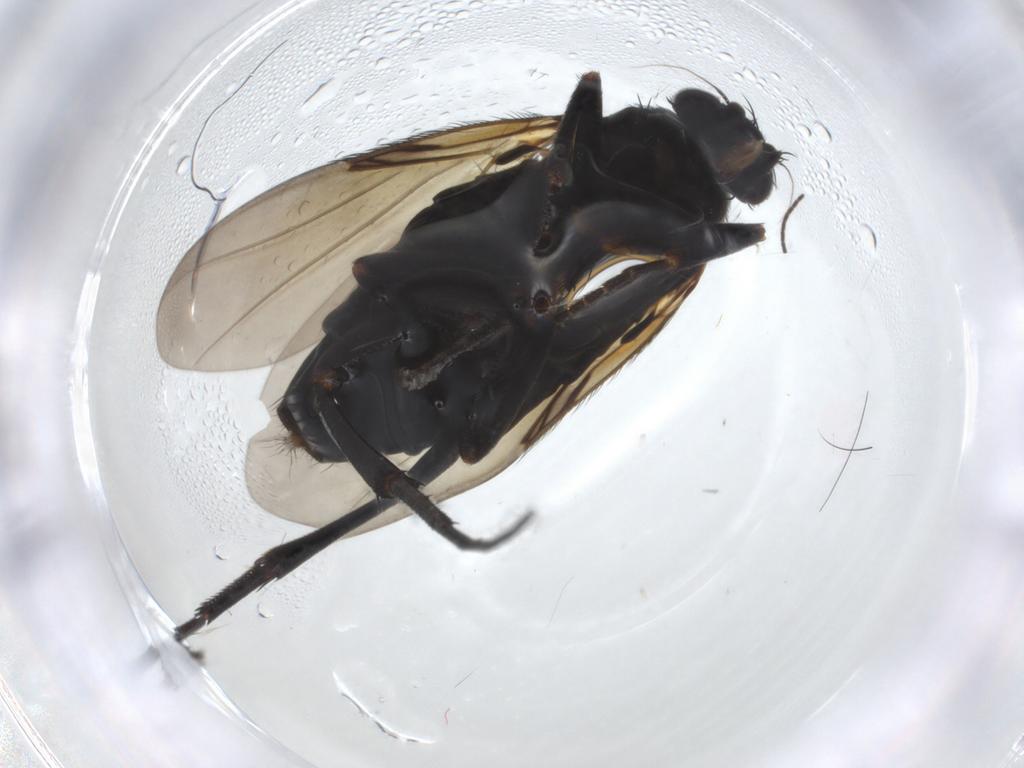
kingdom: Animalia
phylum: Arthropoda
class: Insecta
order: Diptera
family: Phoridae
